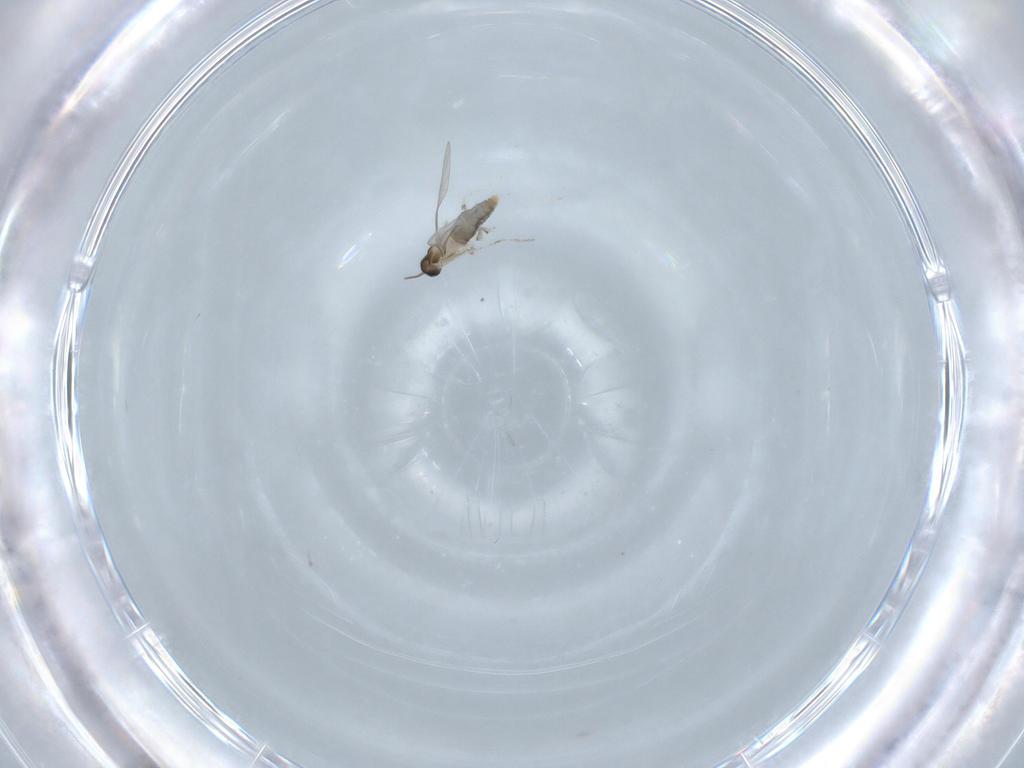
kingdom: Animalia
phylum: Arthropoda
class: Insecta
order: Diptera
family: Cecidomyiidae
